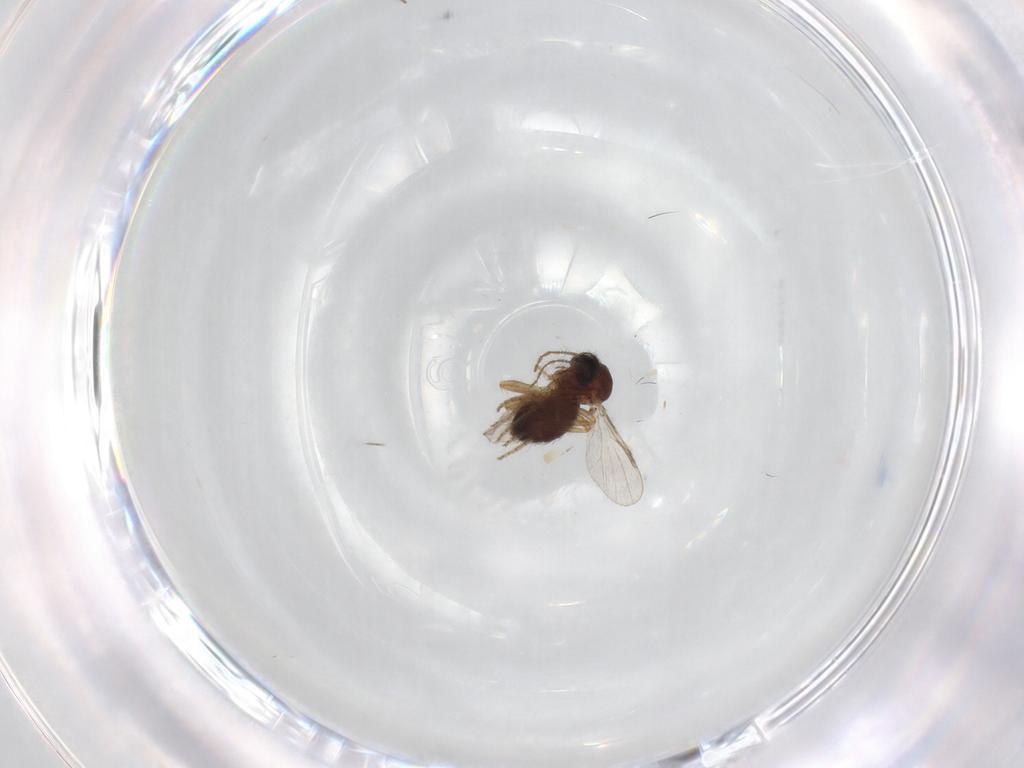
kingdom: Animalia
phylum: Arthropoda
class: Insecta
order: Diptera
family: Ceratopogonidae
